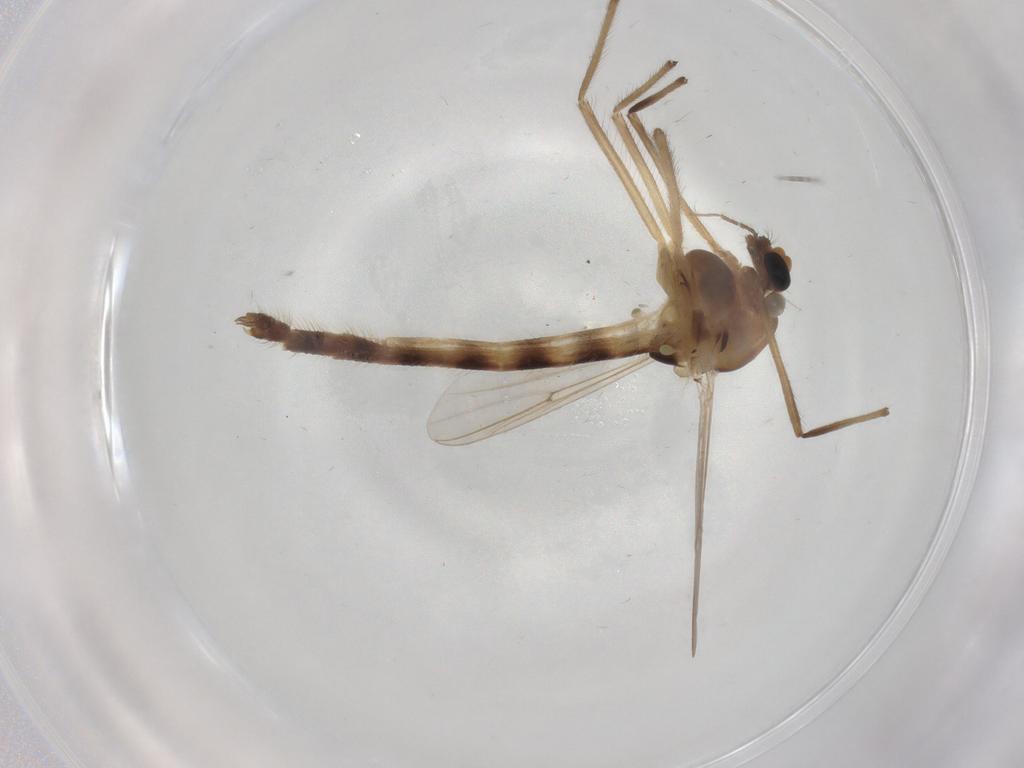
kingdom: Animalia
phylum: Arthropoda
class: Insecta
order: Diptera
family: Chironomidae
